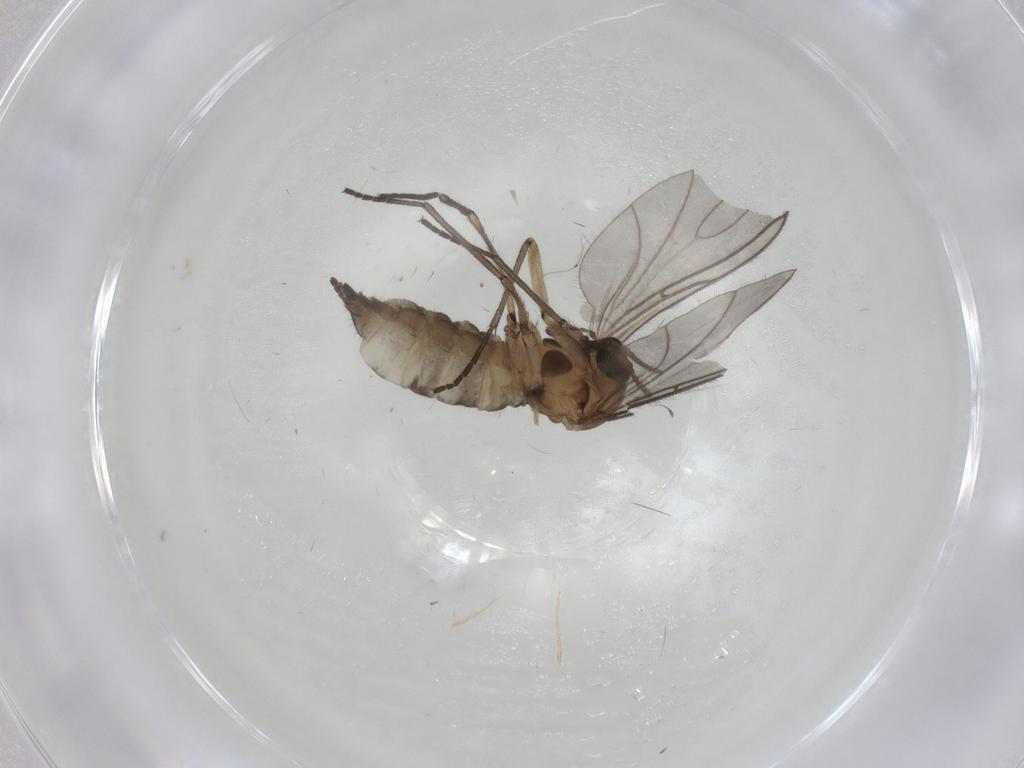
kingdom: Animalia
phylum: Arthropoda
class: Insecta
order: Diptera
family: Sciaridae
